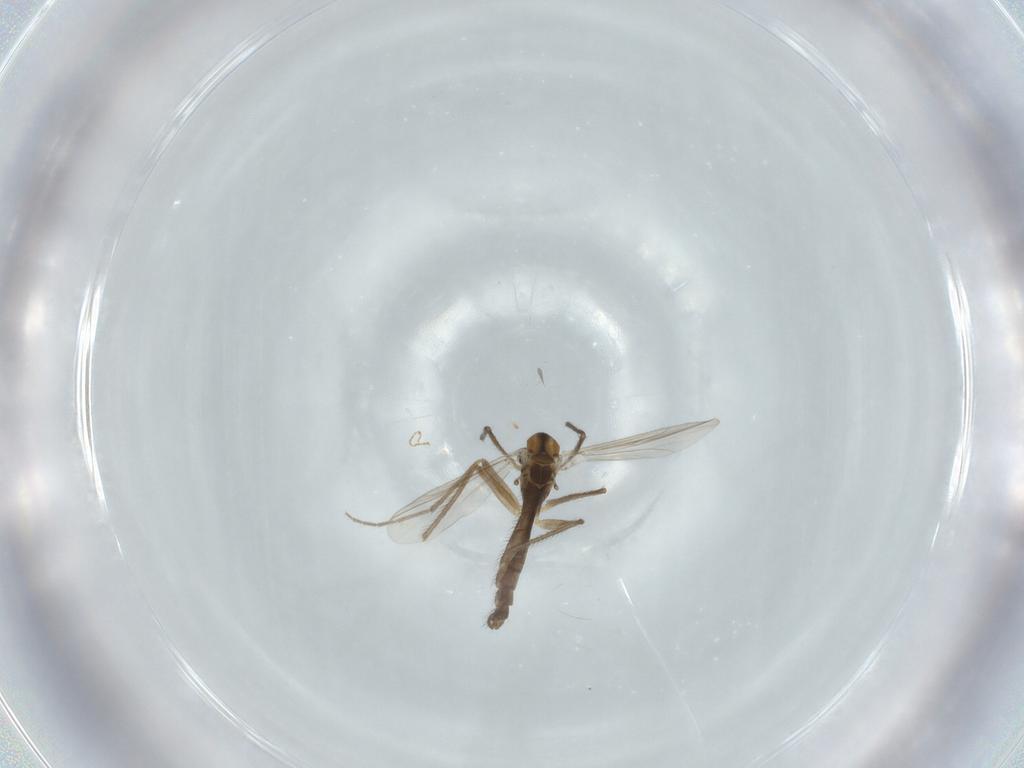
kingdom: Animalia
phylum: Arthropoda
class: Insecta
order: Diptera
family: Chironomidae
